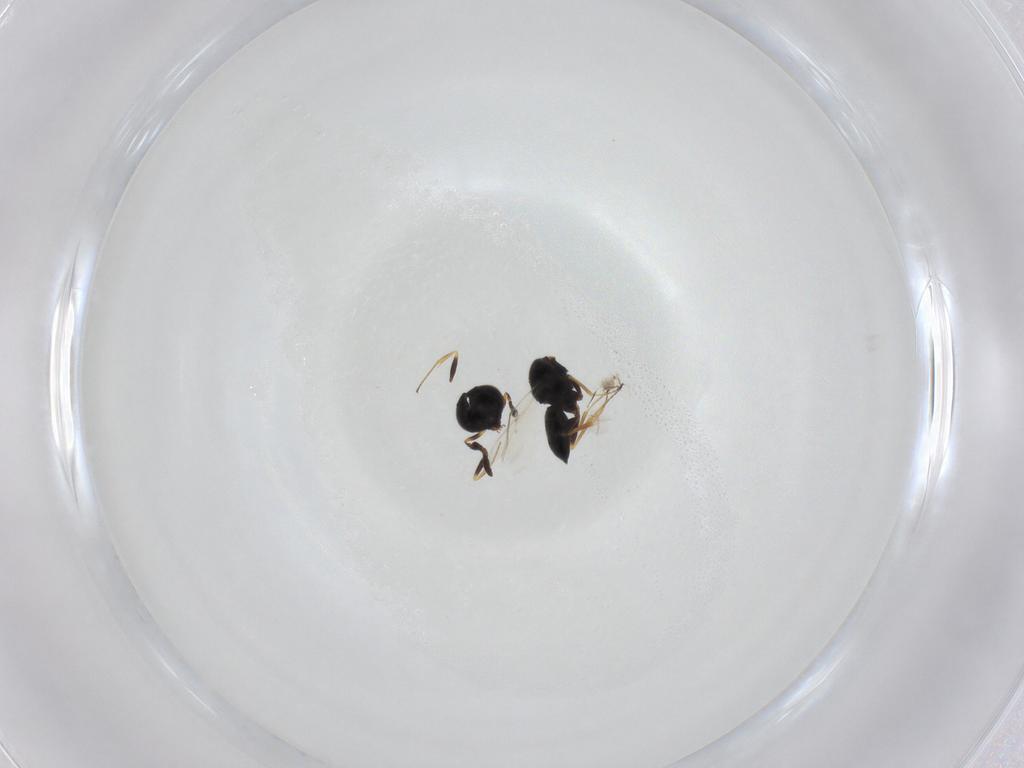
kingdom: Animalia
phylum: Arthropoda
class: Insecta
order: Hymenoptera
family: Scelionidae
